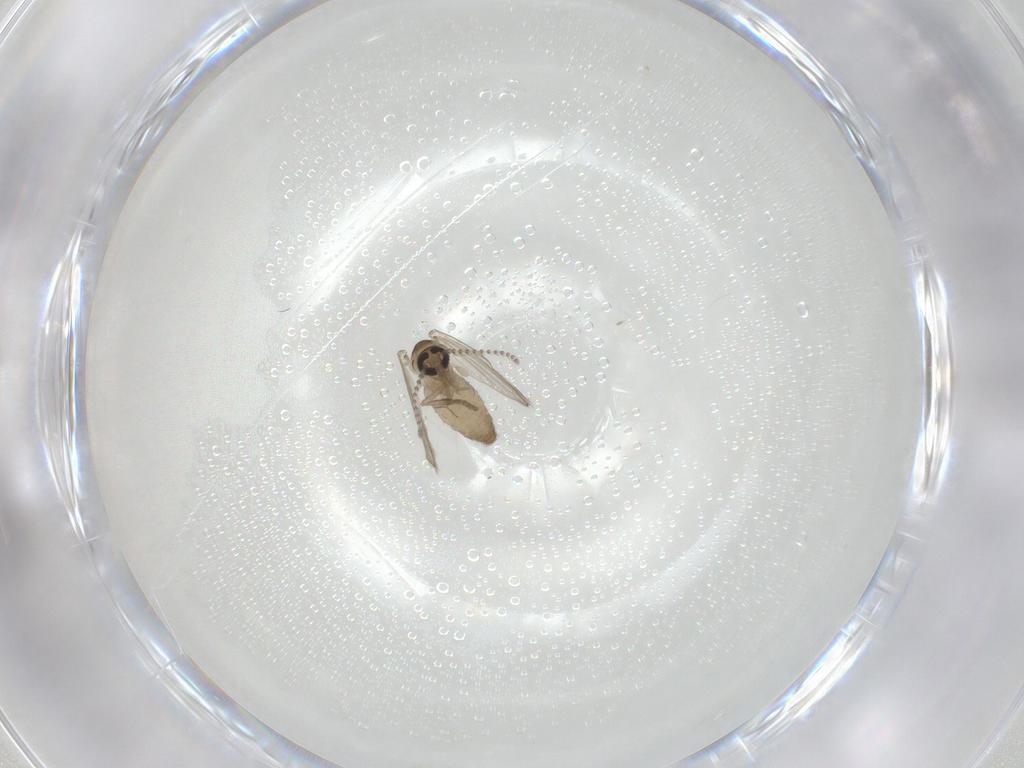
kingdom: Animalia
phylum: Arthropoda
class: Insecta
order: Diptera
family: Psychodidae
